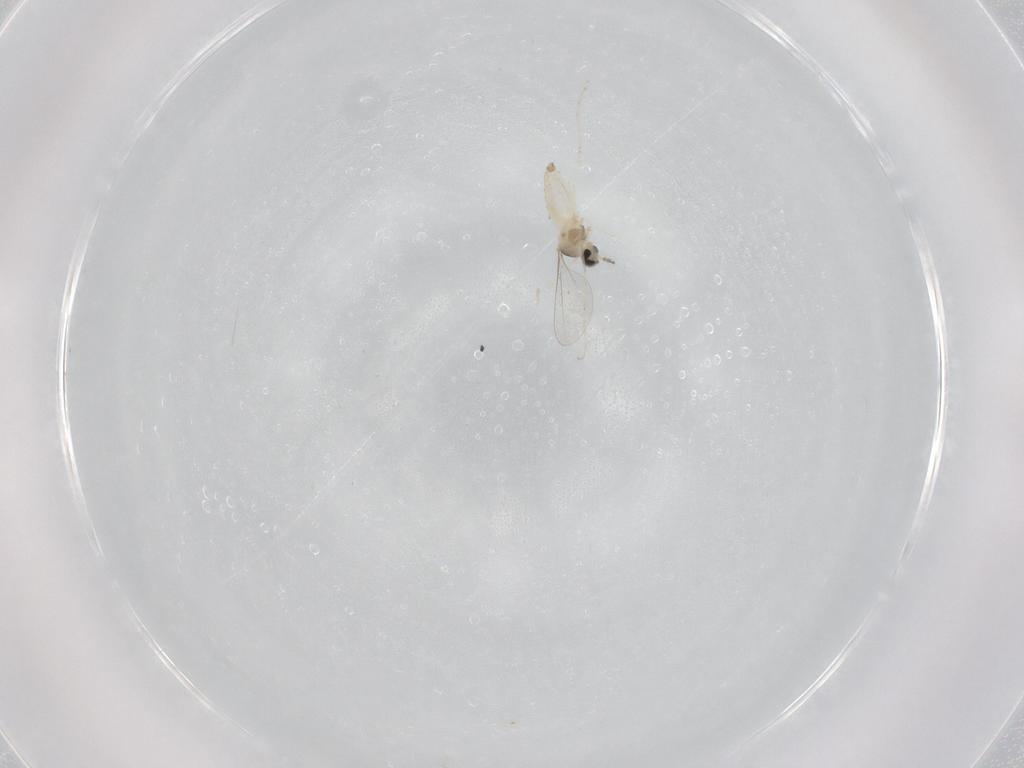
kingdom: Animalia
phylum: Arthropoda
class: Insecta
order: Diptera
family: Cecidomyiidae
